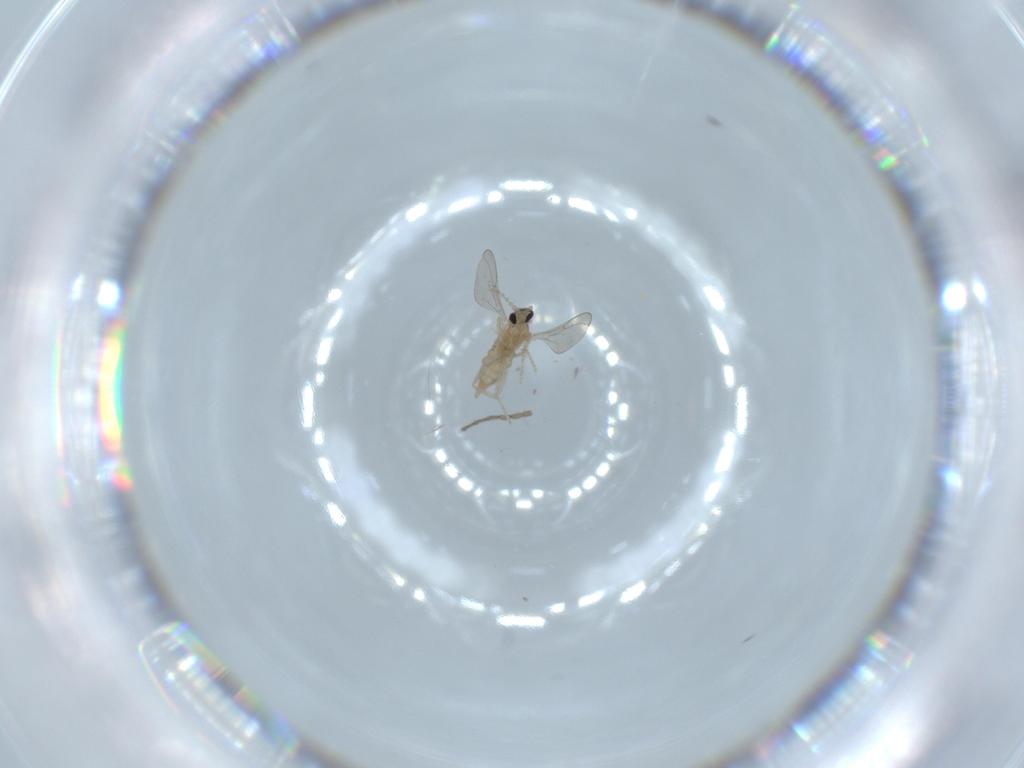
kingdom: Animalia
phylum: Arthropoda
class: Insecta
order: Diptera
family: Cecidomyiidae
